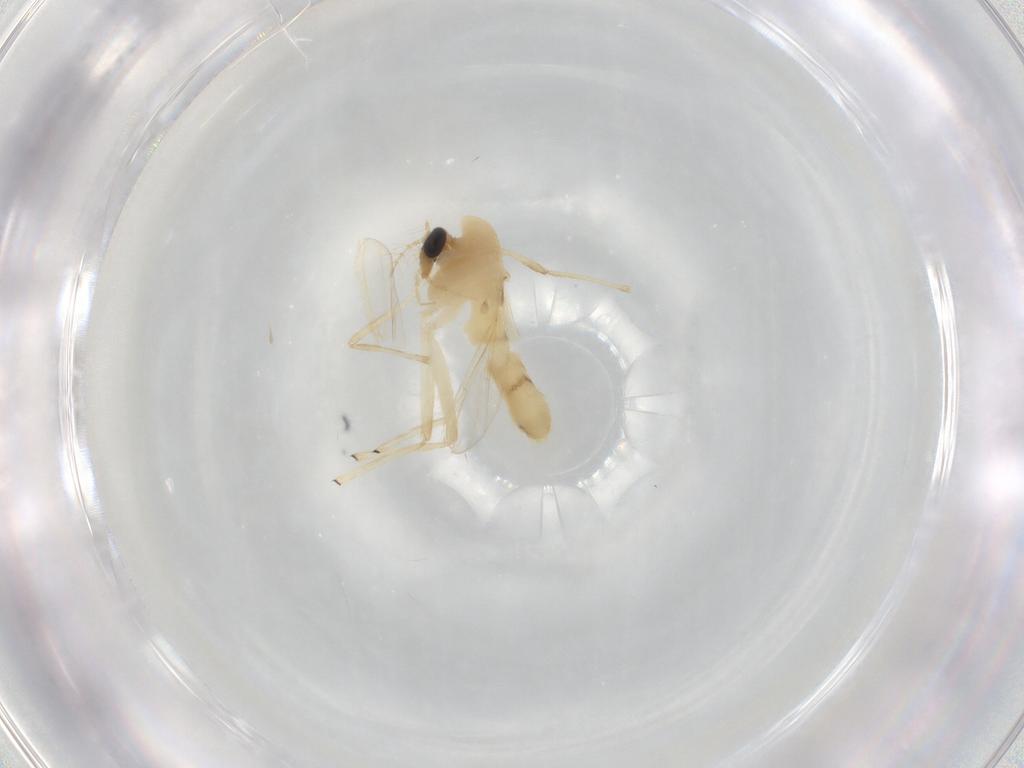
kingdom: Animalia
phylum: Arthropoda
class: Insecta
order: Diptera
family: Chironomidae
